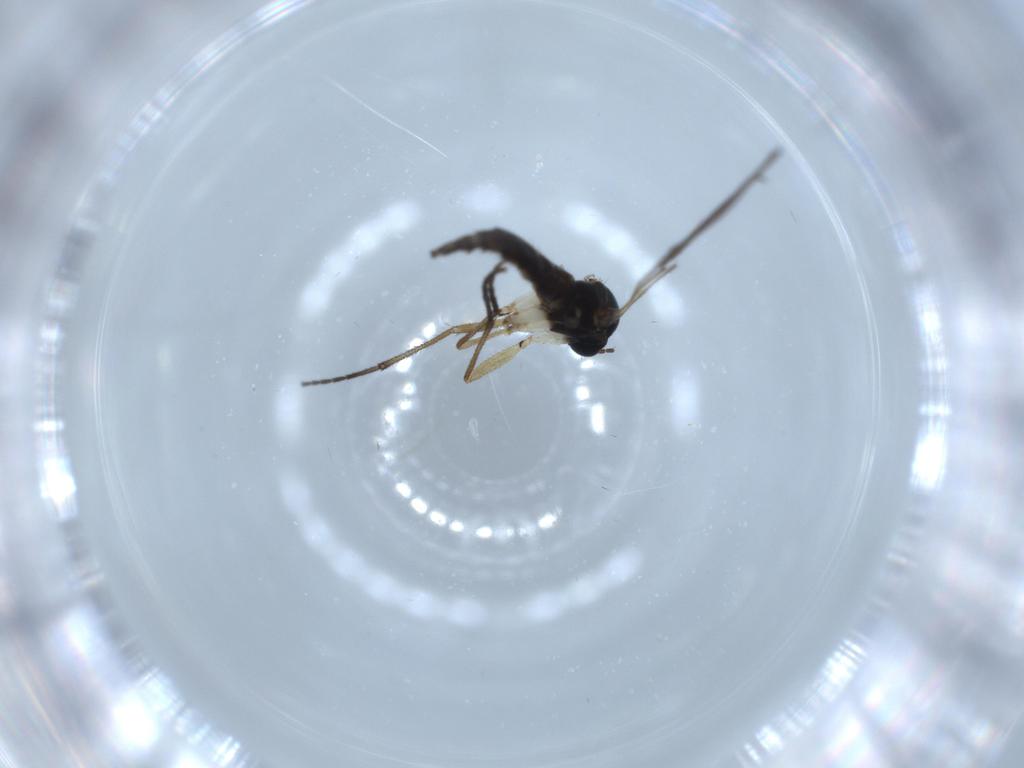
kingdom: Animalia
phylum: Arthropoda
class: Insecta
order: Diptera
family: Sciaridae
